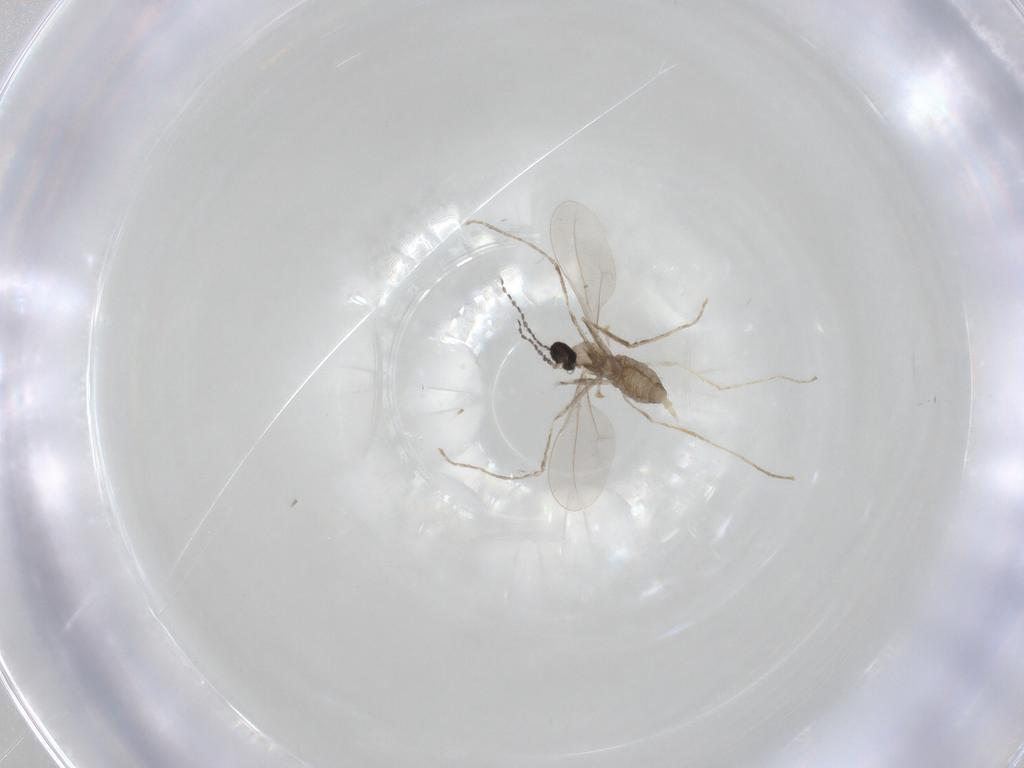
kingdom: Animalia
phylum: Arthropoda
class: Insecta
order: Diptera
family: Cecidomyiidae
